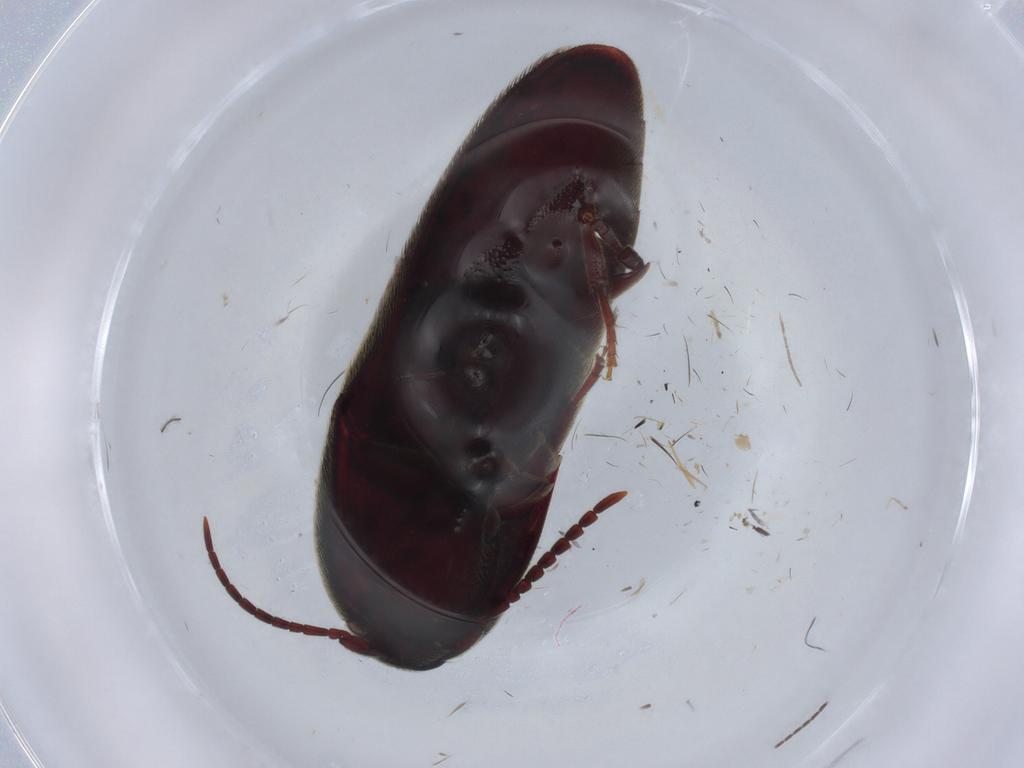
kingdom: Animalia
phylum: Arthropoda
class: Insecta
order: Coleoptera
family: Eucnemidae
